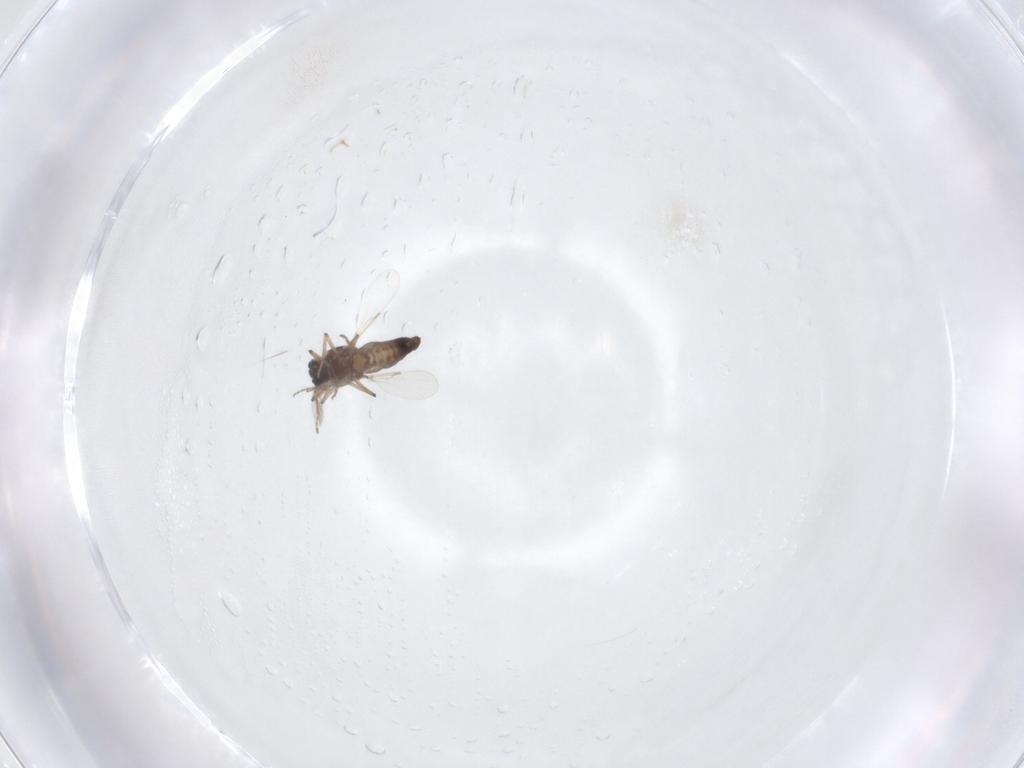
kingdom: Animalia
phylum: Arthropoda
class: Insecta
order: Diptera
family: Ceratopogonidae
